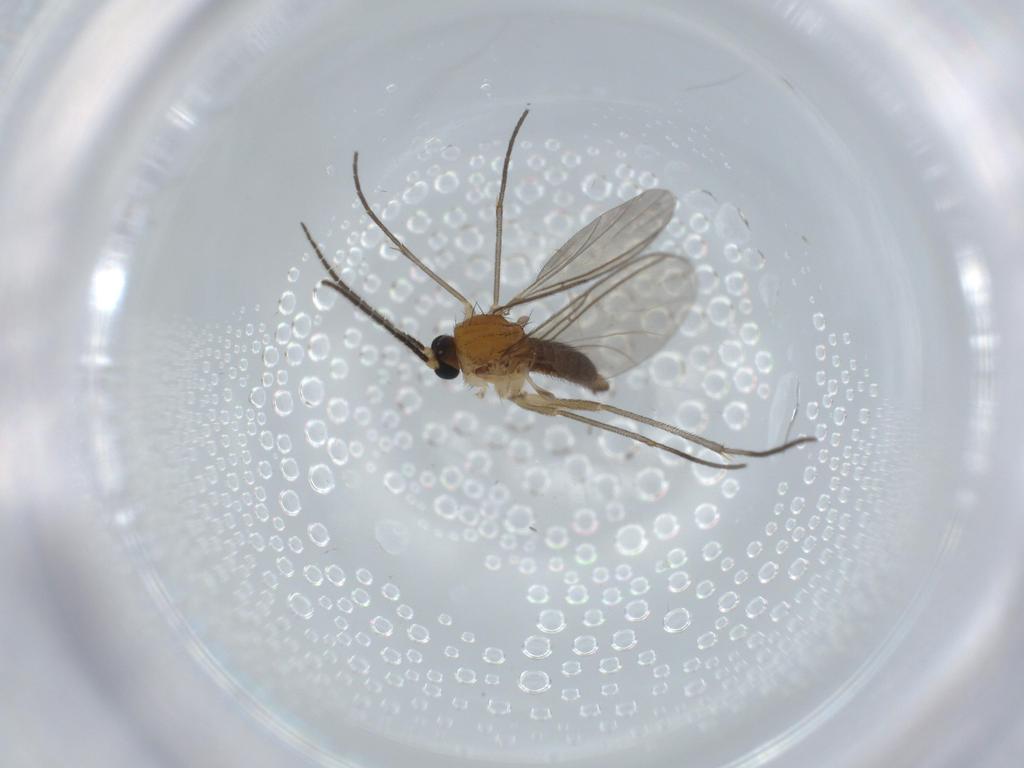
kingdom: Animalia
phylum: Arthropoda
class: Insecta
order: Diptera
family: Sciaridae
